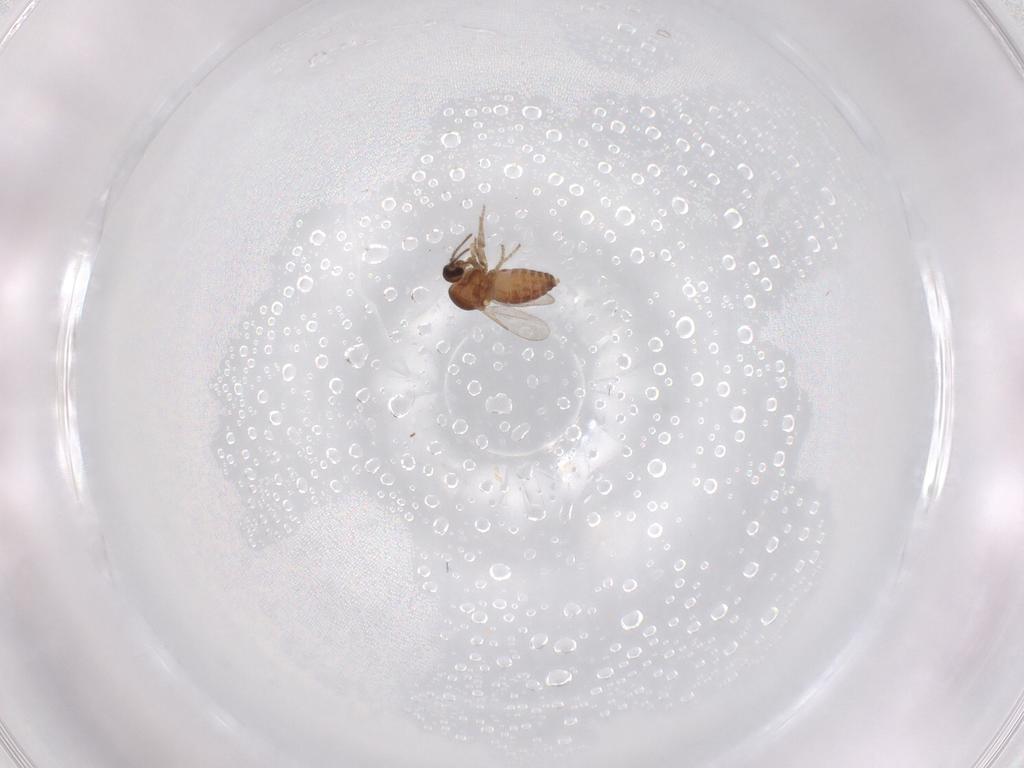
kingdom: Animalia
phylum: Arthropoda
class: Insecta
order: Diptera
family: Ceratopogonidae
